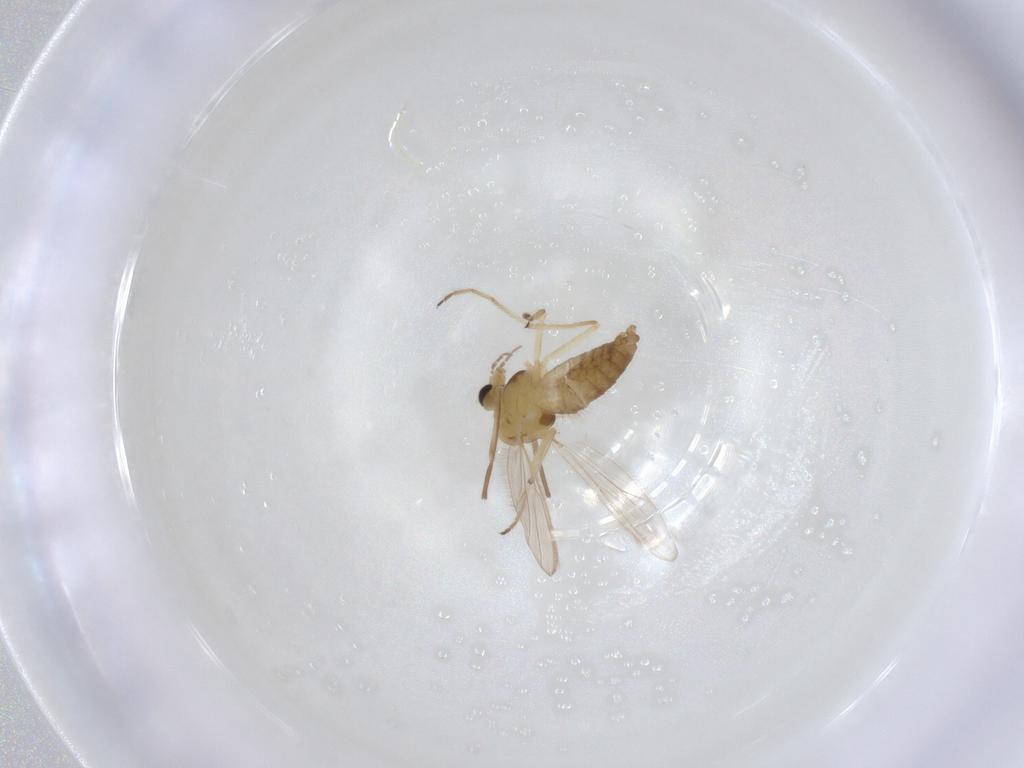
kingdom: Animalia
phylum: Arthropoda
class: Insecta
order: Diptera
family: Chironomidae
